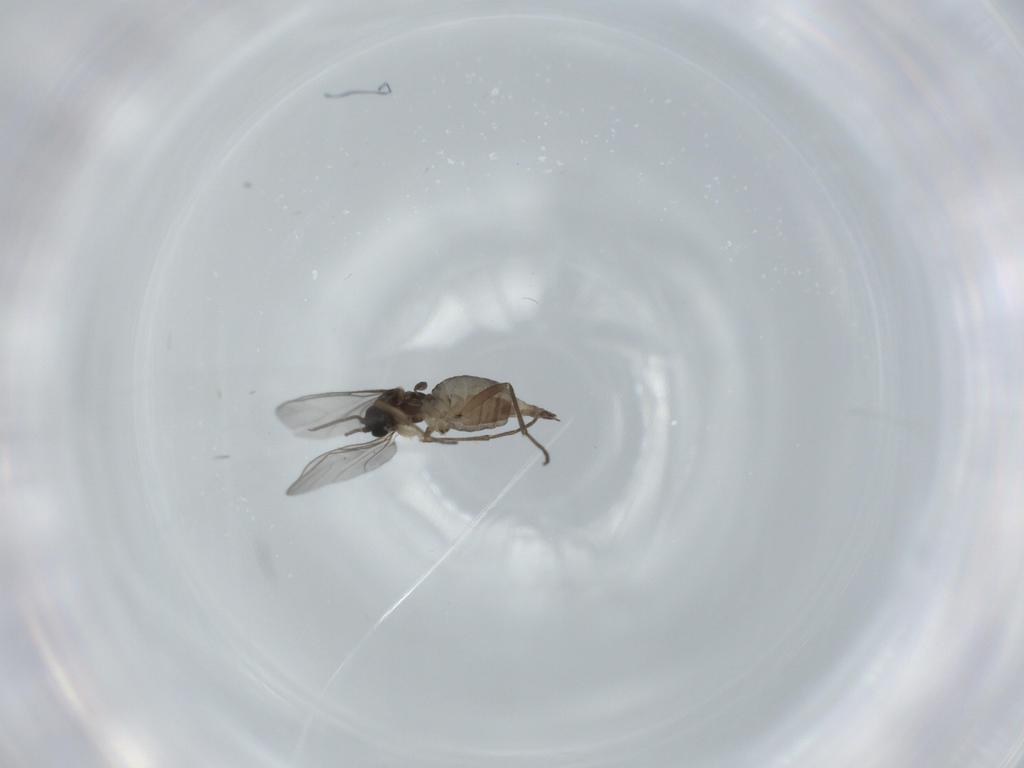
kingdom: Animalia
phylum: Arthropoda
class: Insecta
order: Diptera
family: Sciaridae
